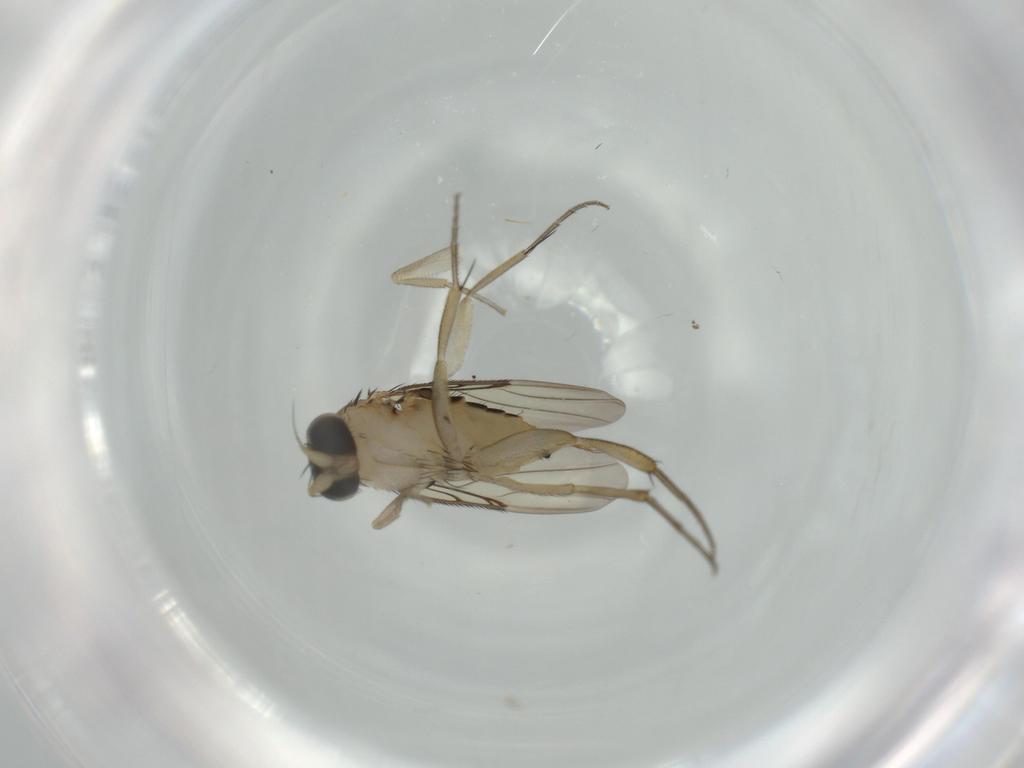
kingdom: Animalia
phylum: Arthropoda
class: Insecta
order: Diptera
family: Phoridae
